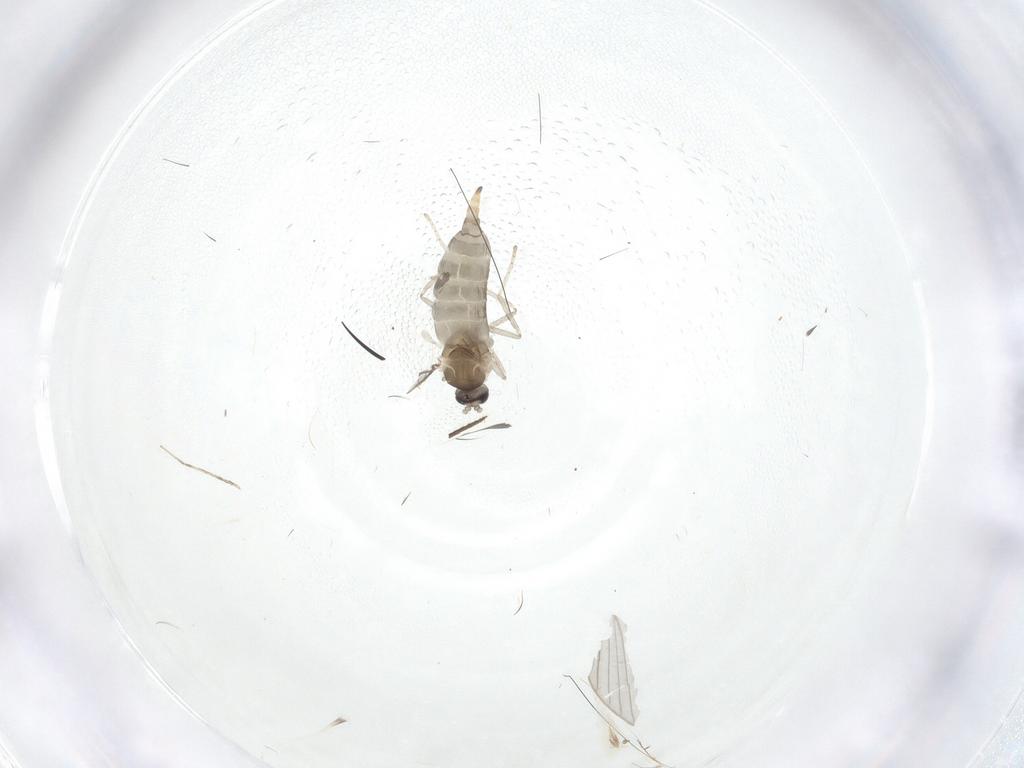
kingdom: Animalia
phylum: Arthropoda
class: Insecta
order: Diptera
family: Cecidomyiidae
